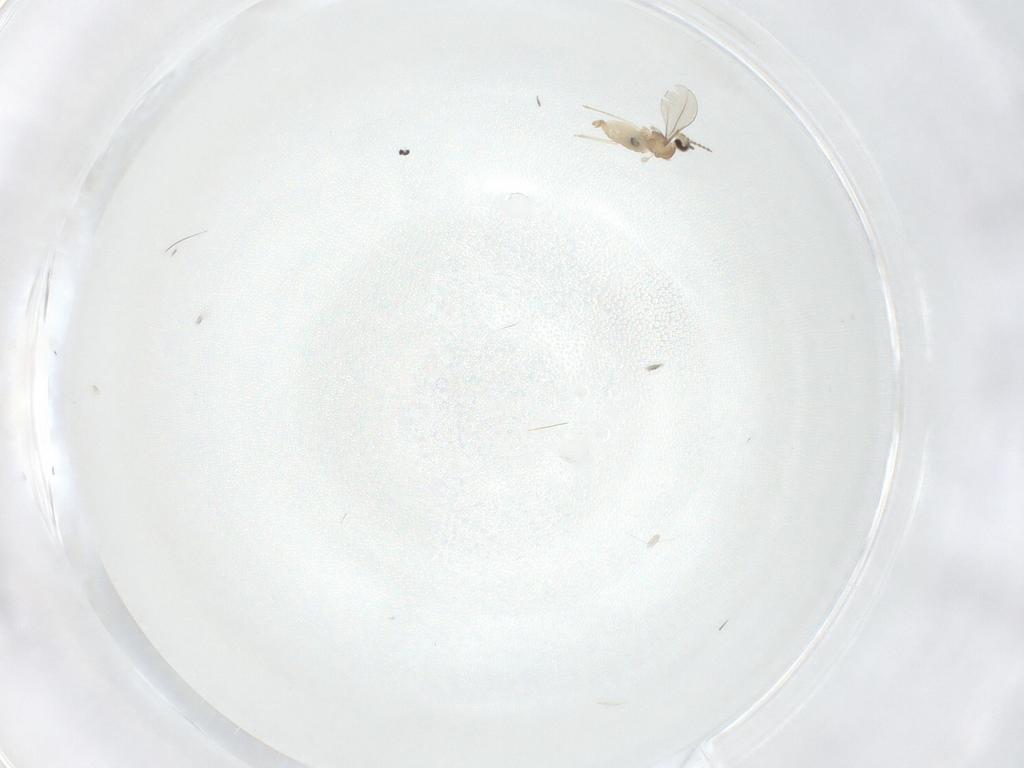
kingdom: Animalia
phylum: Arthropoda
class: Insecta
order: Diptera
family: Cecidomyiidae
